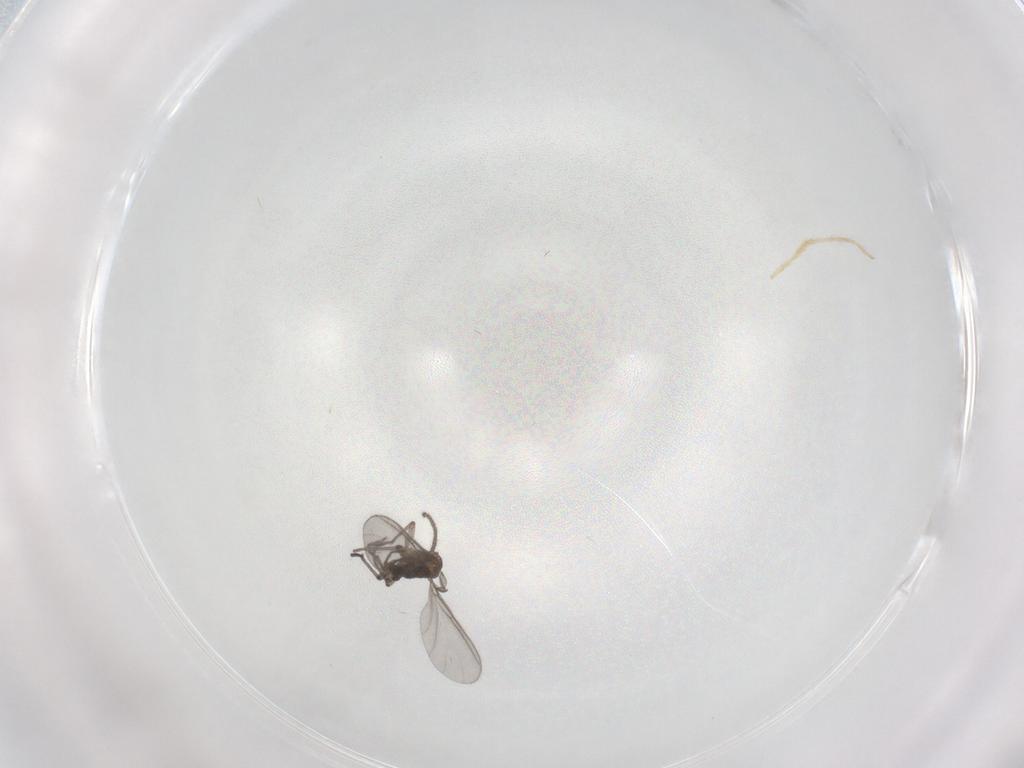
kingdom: Animalia
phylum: Arthropoda
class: Insecta
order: Diptera
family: Sciaridae
